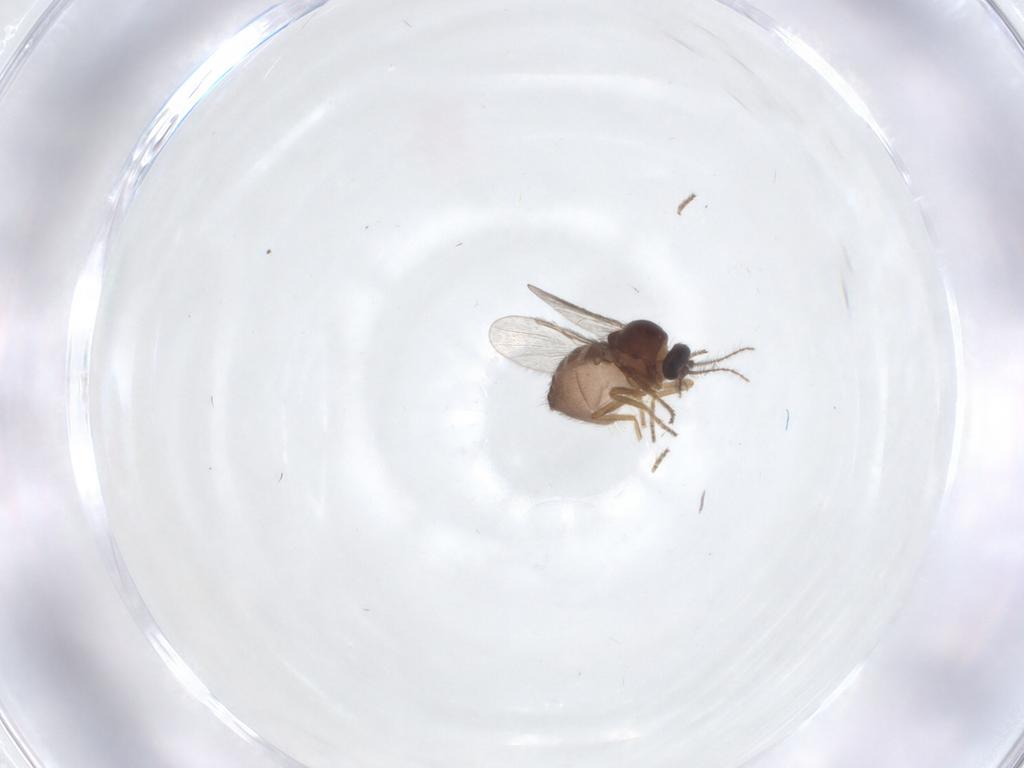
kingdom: Animalia
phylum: Arthropoda
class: Insecta
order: Diptera
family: Ceratopogonidae
